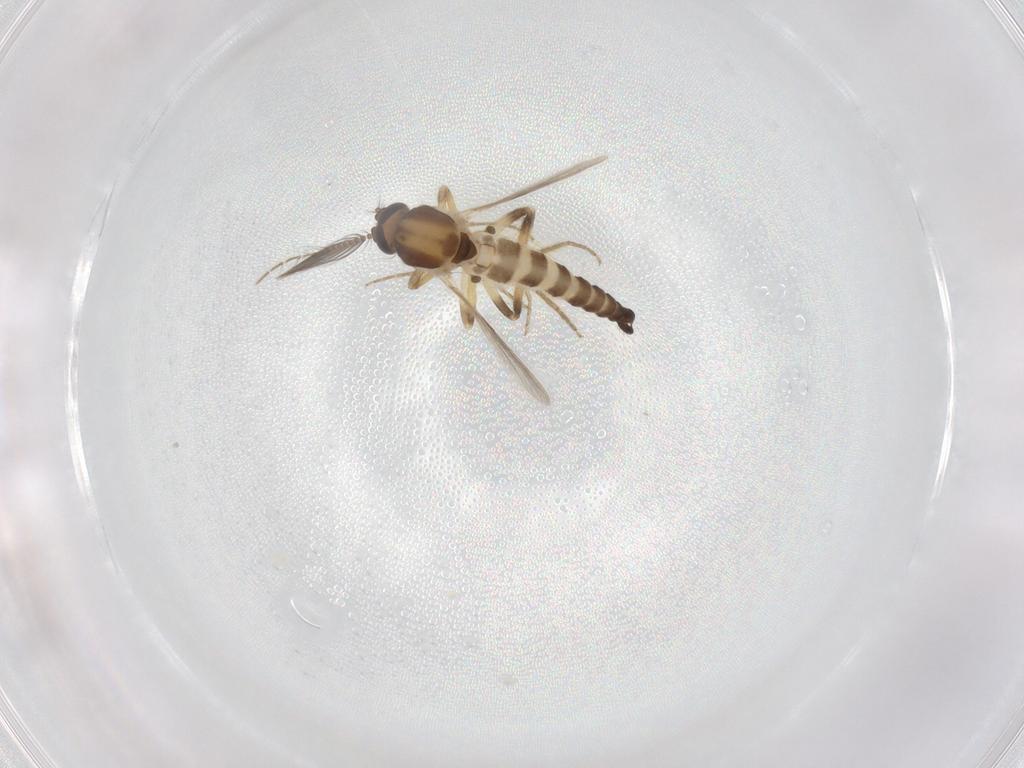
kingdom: Animalia
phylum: Arthropoda
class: Insecta
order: Diptera
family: Ceratopogonidae
